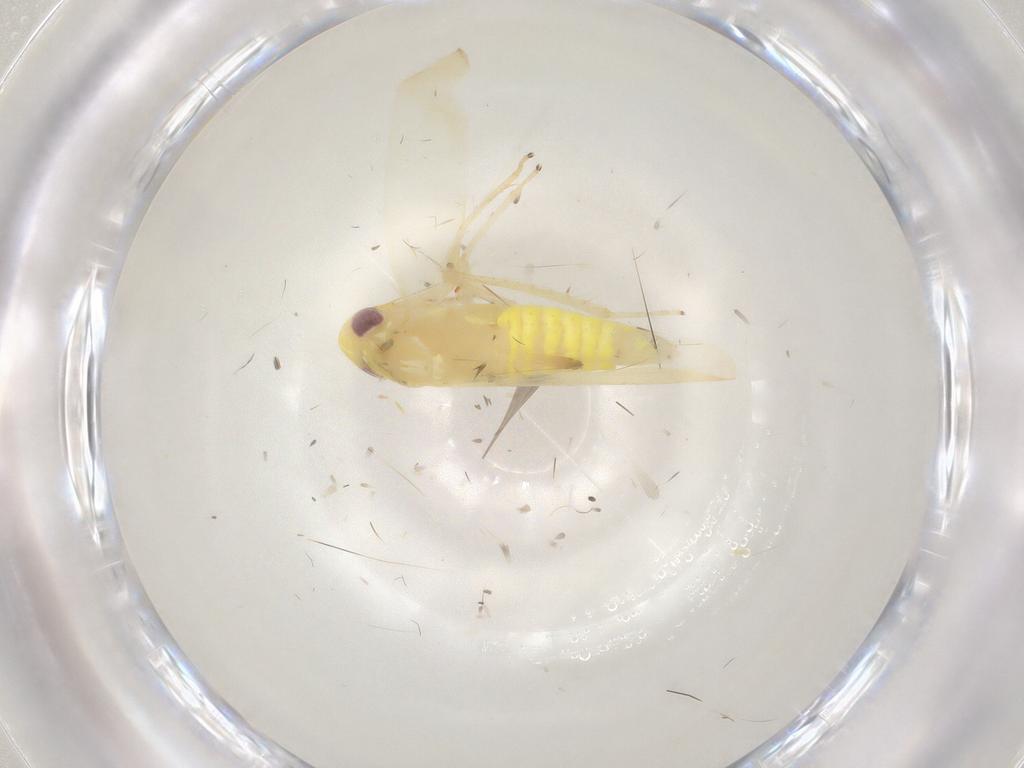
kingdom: Animalia
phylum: Arthropoda
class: Insecta
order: Hemiptera
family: Cicadellidae
